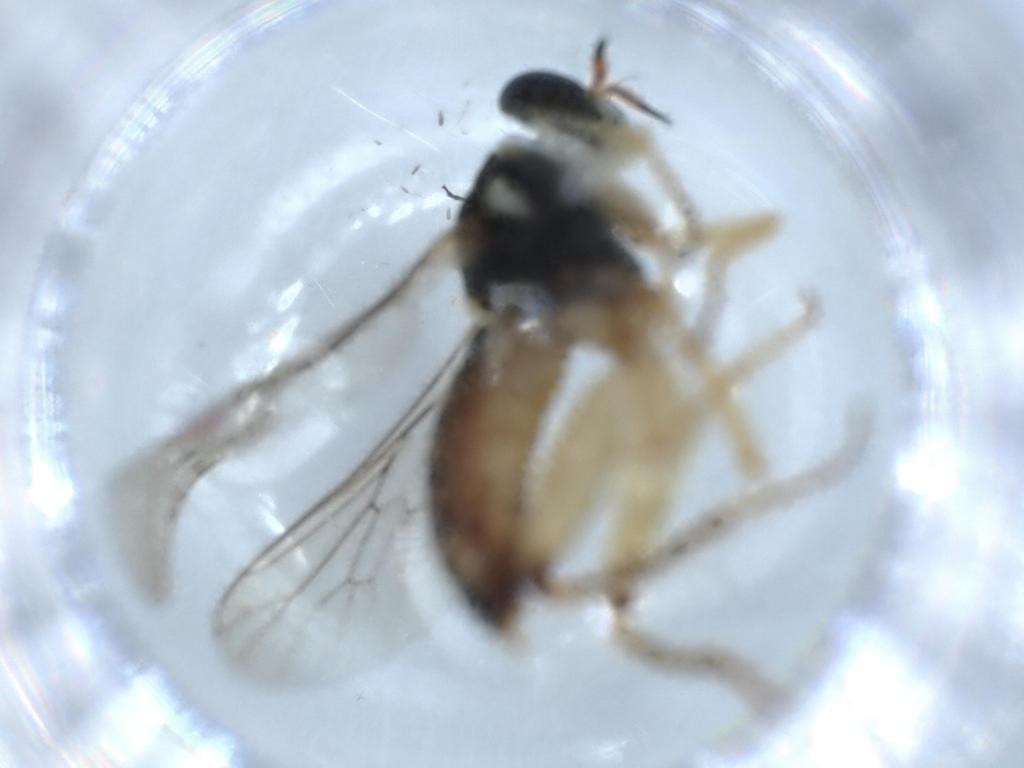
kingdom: Animalia
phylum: Arthropoda
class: Insecta
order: Diptera
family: Sciaridae
